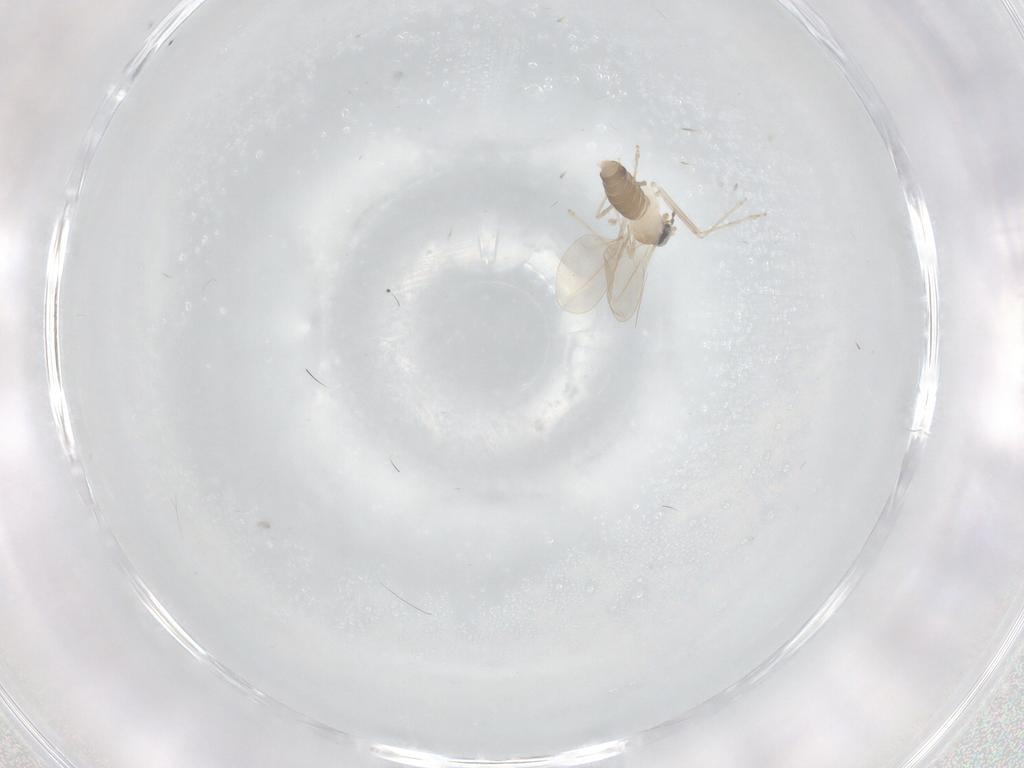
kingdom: Animalia
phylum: Arthropoda
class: Insecta
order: Diptera
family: Cecidomyiidae
